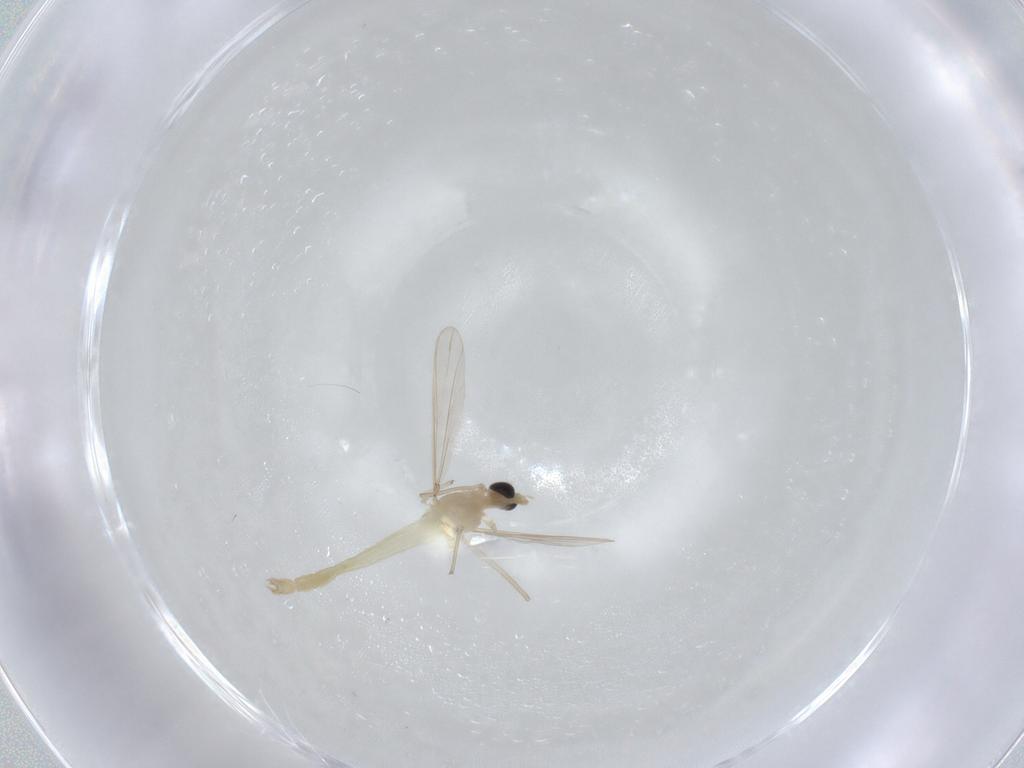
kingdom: Animalia
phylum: Arthropoda
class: Insecta
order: Diptera
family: Chironomidae
